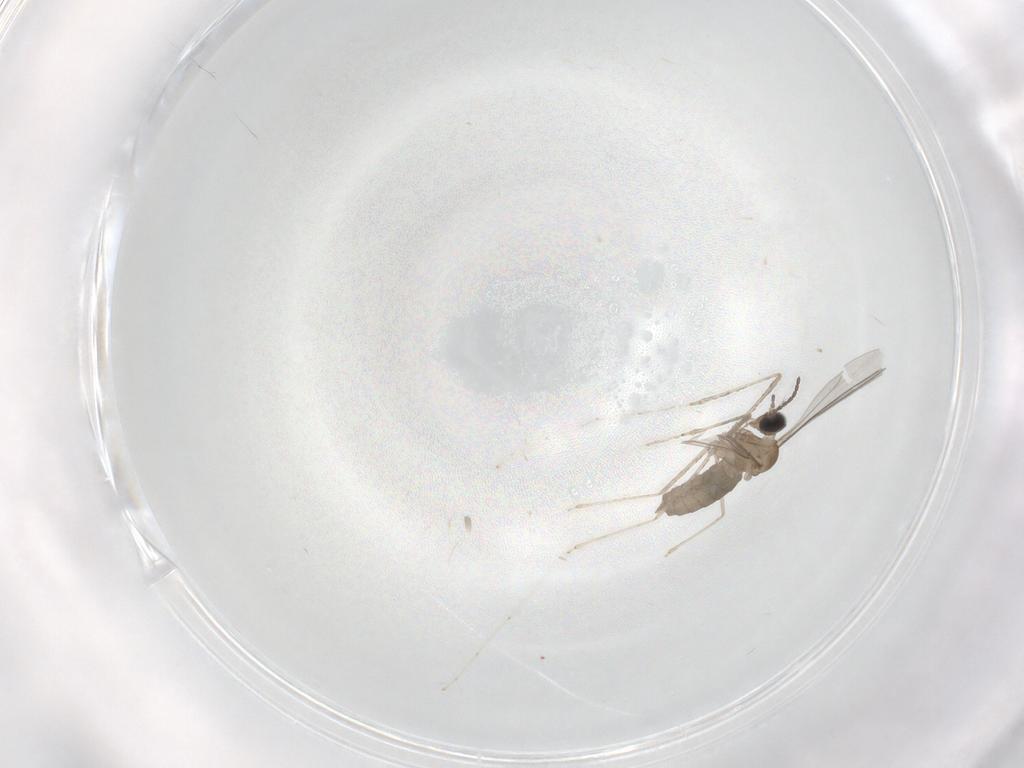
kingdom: Animalia
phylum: Arthropoda
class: Insecta
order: Diptera
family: Cecidomyiidae
